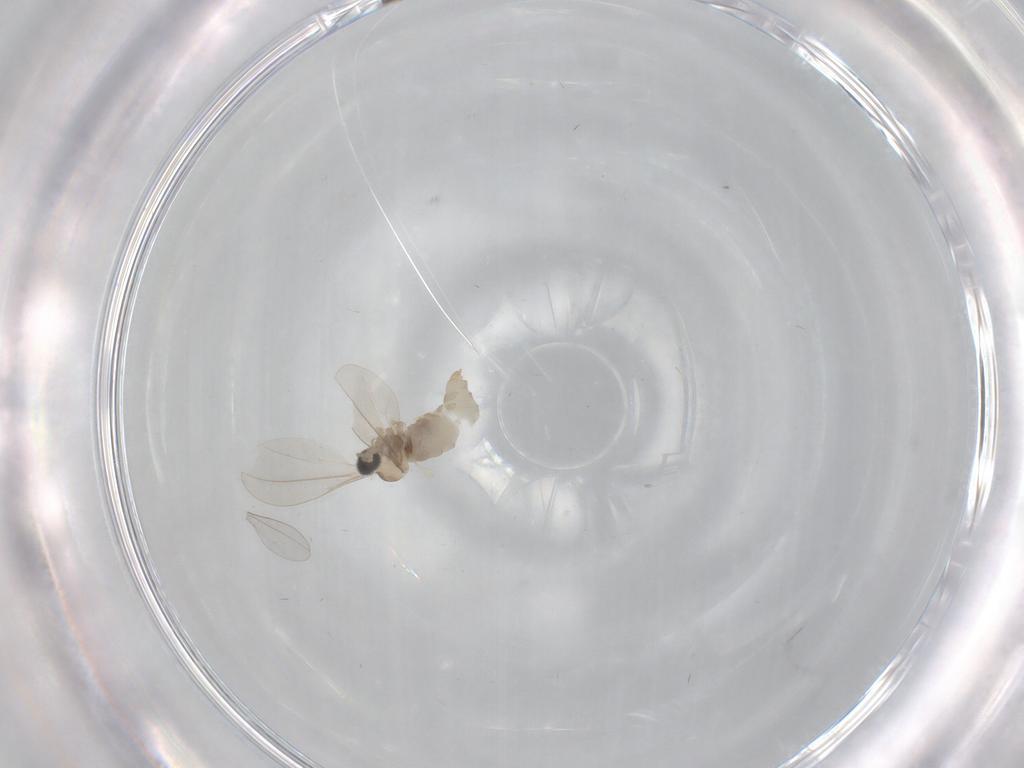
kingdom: Animalia
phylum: Arthropoda
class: Insecta
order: Diptera
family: Cecidomyiidae
